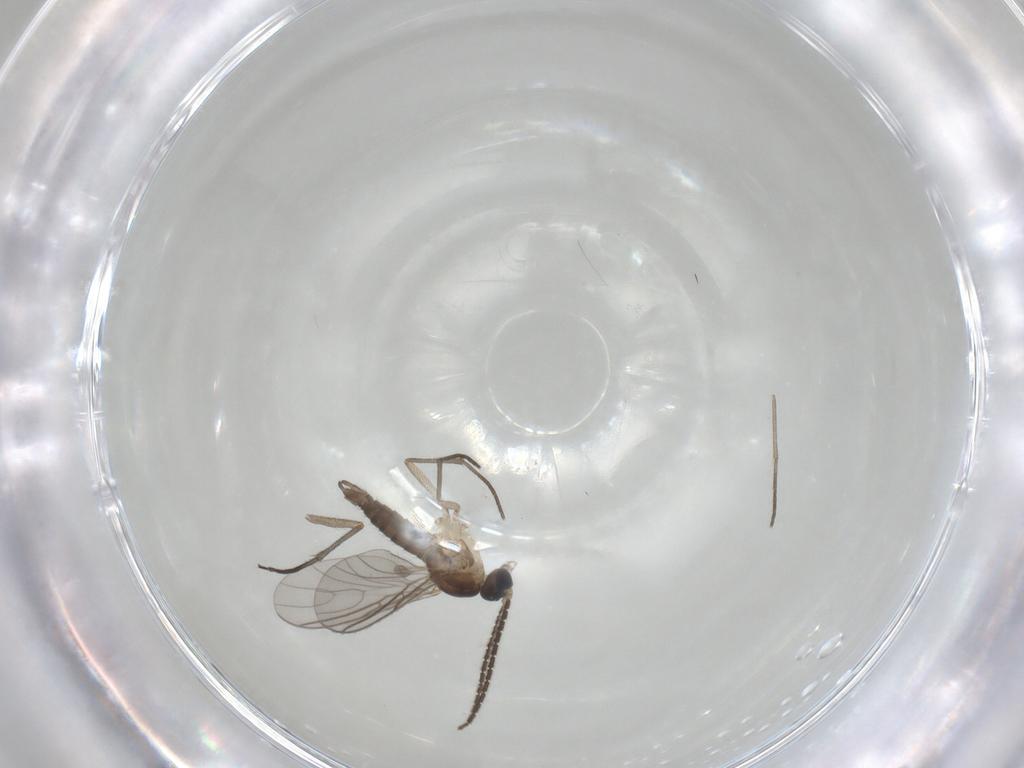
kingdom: Animalia
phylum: Arthropoda
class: Insecta
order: Diptera
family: Sciaridae
